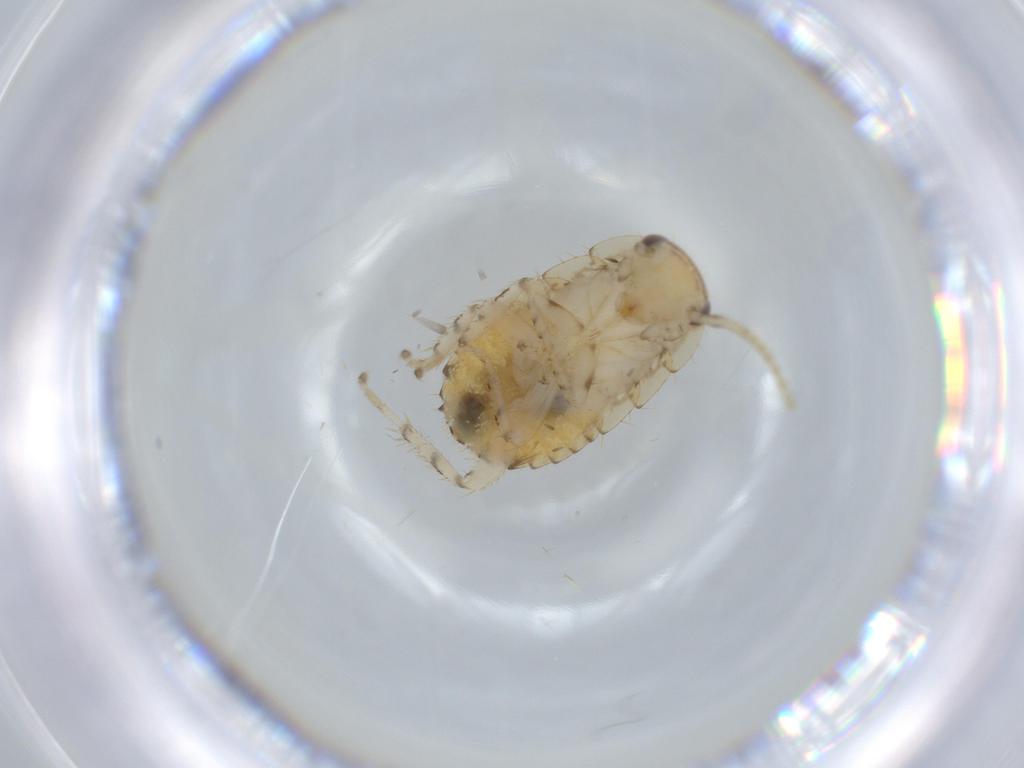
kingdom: Animalia
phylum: Arthropoda
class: Insecta
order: Blattodea
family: Ectobiidae
